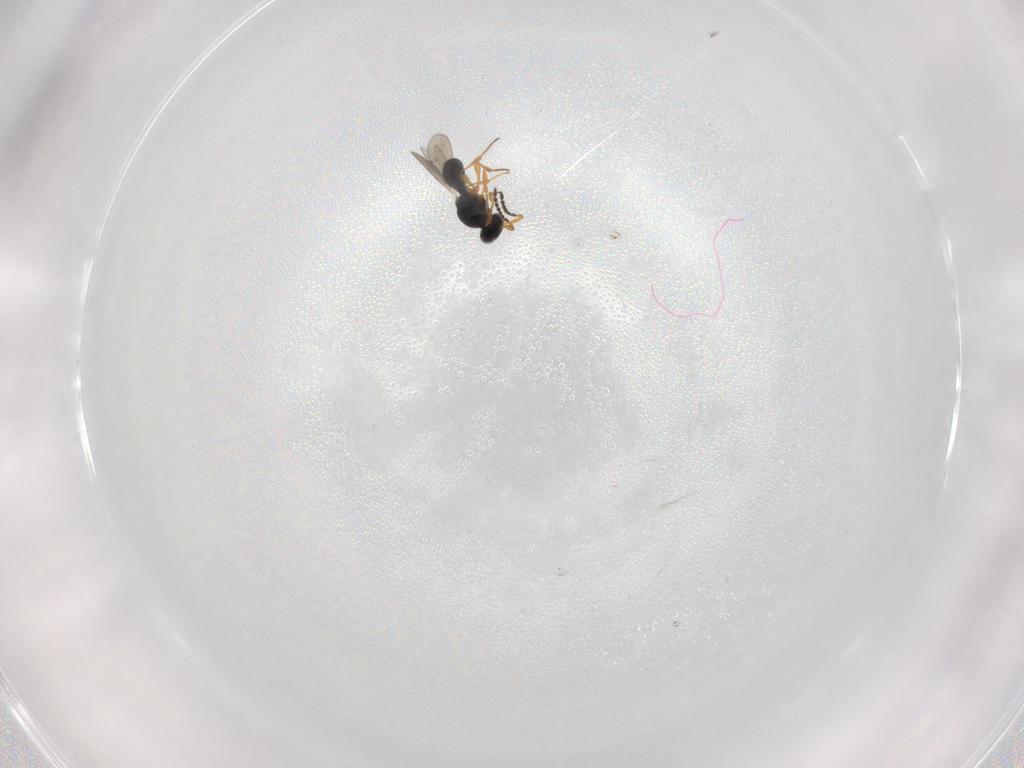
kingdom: Animalia
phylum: Arthropoda
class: Insecta
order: Hymenoptera
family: Platygastridae
